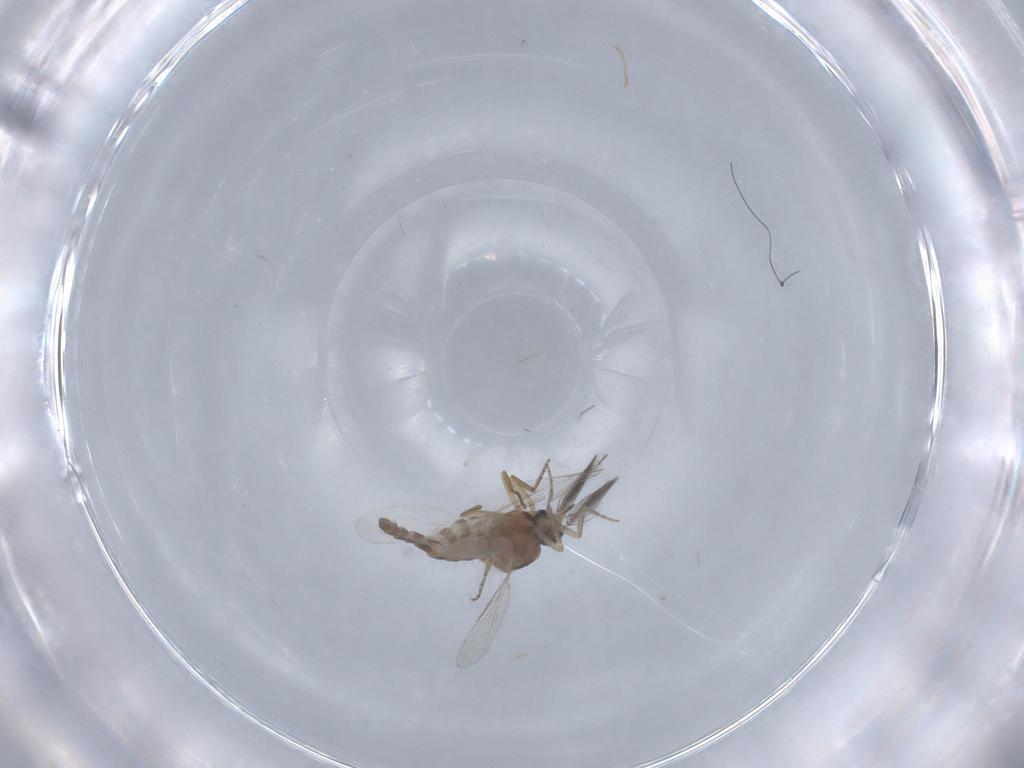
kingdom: Animalia
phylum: Arthropoda
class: Insecta
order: Diptera
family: Ceratopogonidae
